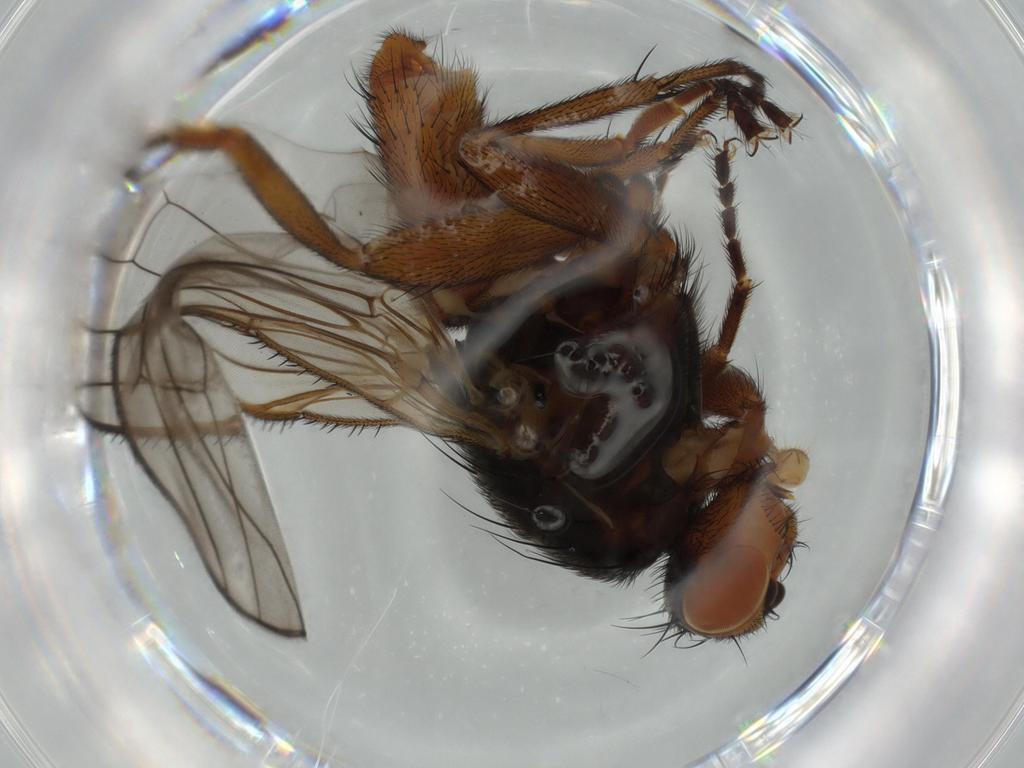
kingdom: Animalia
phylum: Arthropoda
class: Insecta
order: Diptera
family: Heleomyzidae
